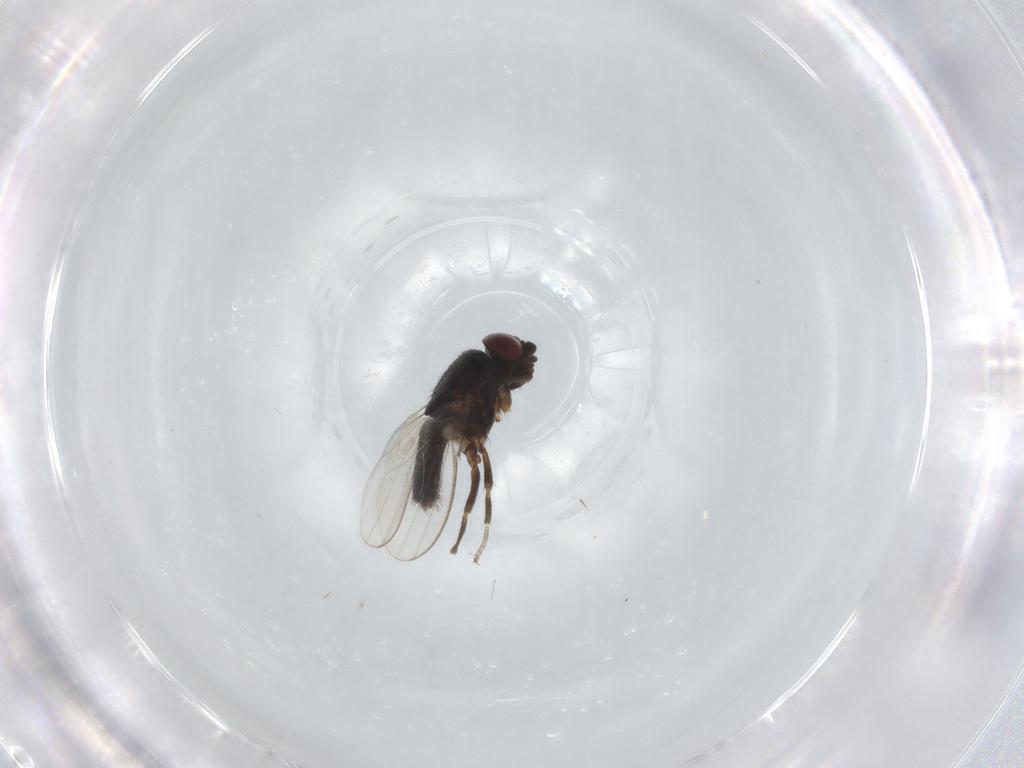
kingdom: Animalia
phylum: Arthropoda
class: Insecta
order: Diptera
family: Milichiidae
